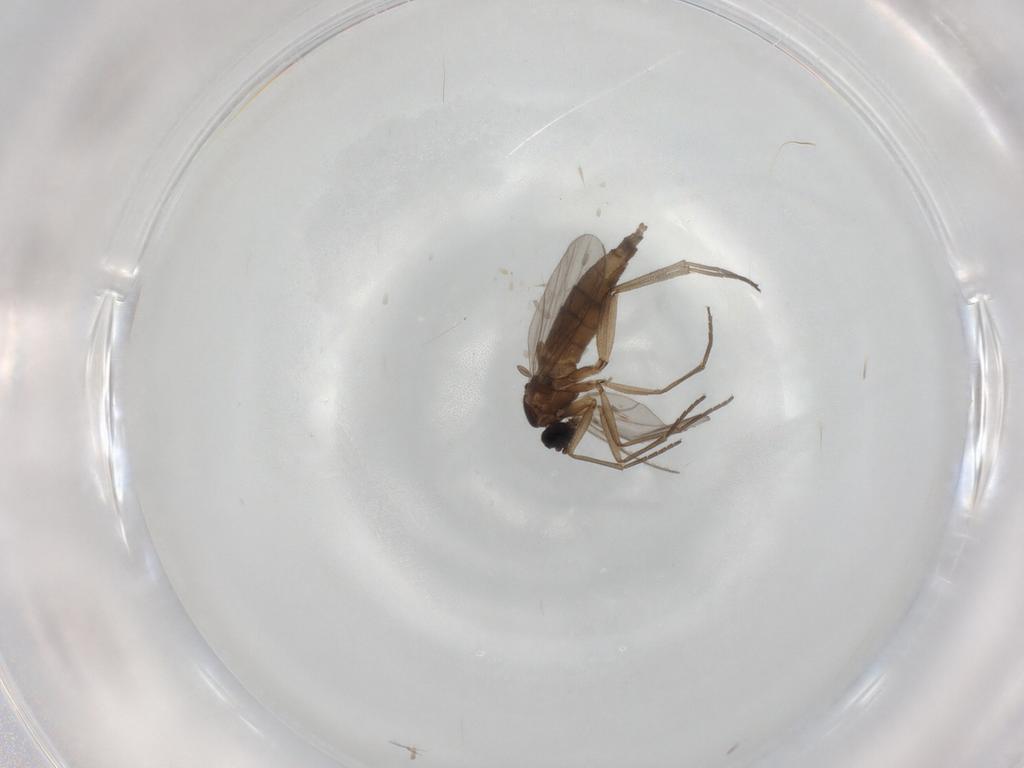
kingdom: Animalia
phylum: Arthropoda
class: Insecta
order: Diptera
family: Sciaridae
